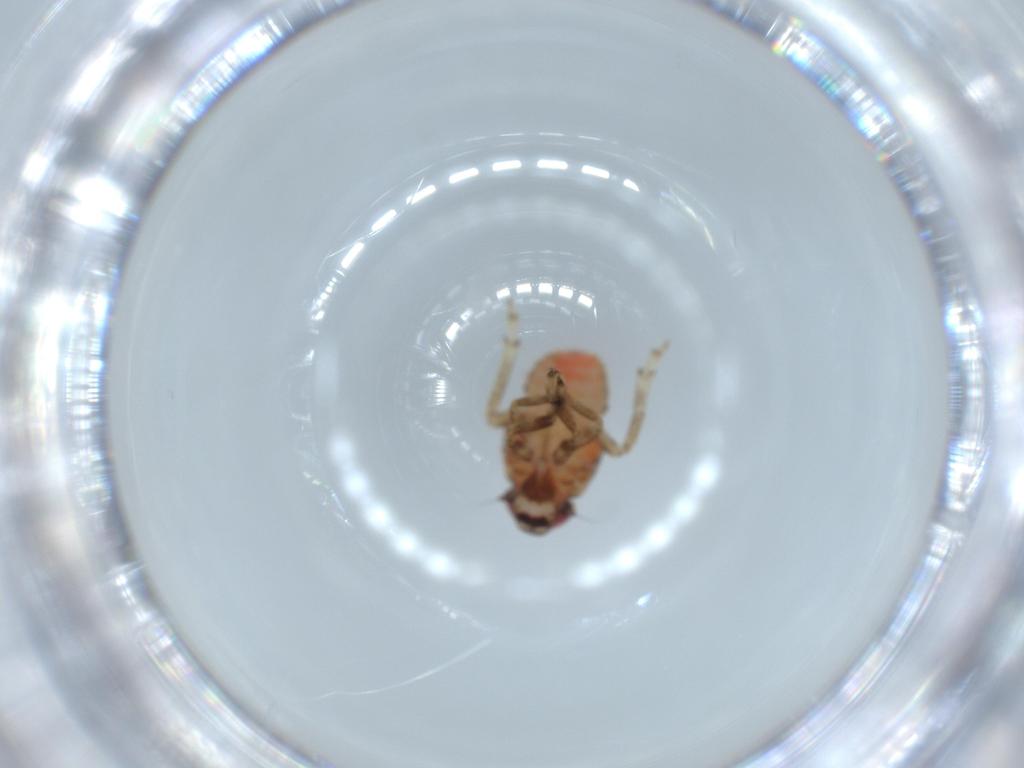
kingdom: Animalia
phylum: Arthropoda
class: Insecta
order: Hemiptera
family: Issidae
